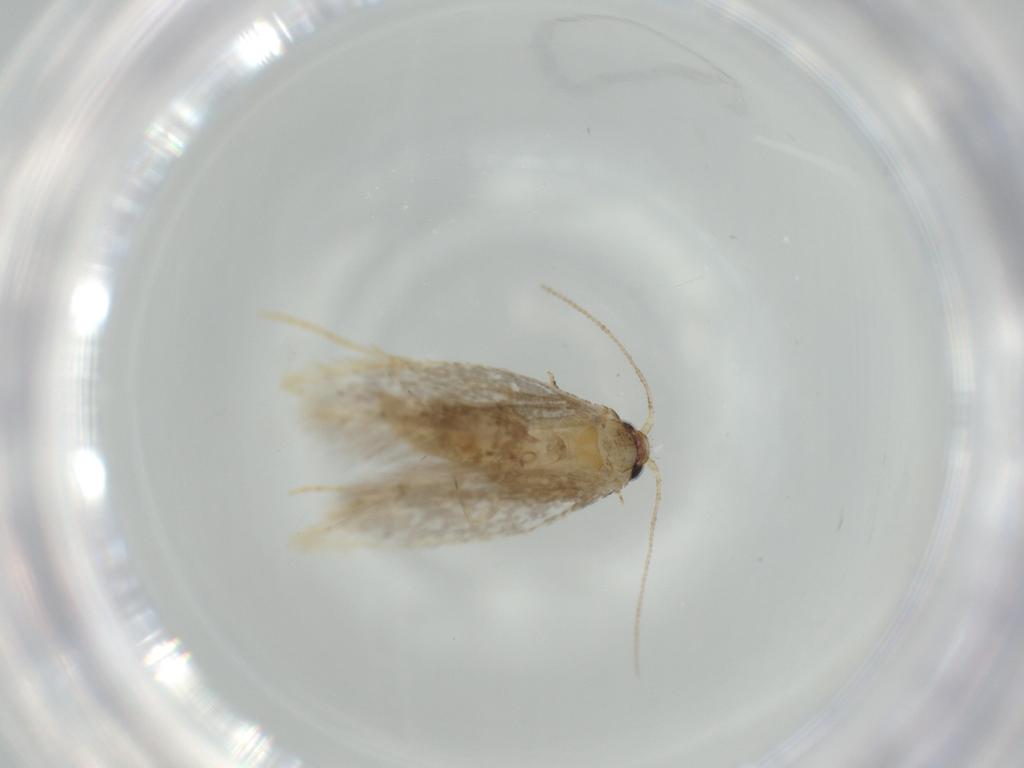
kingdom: Animalia
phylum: Arthropoda
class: Insecta
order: Lepidoptera
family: Tineidae
